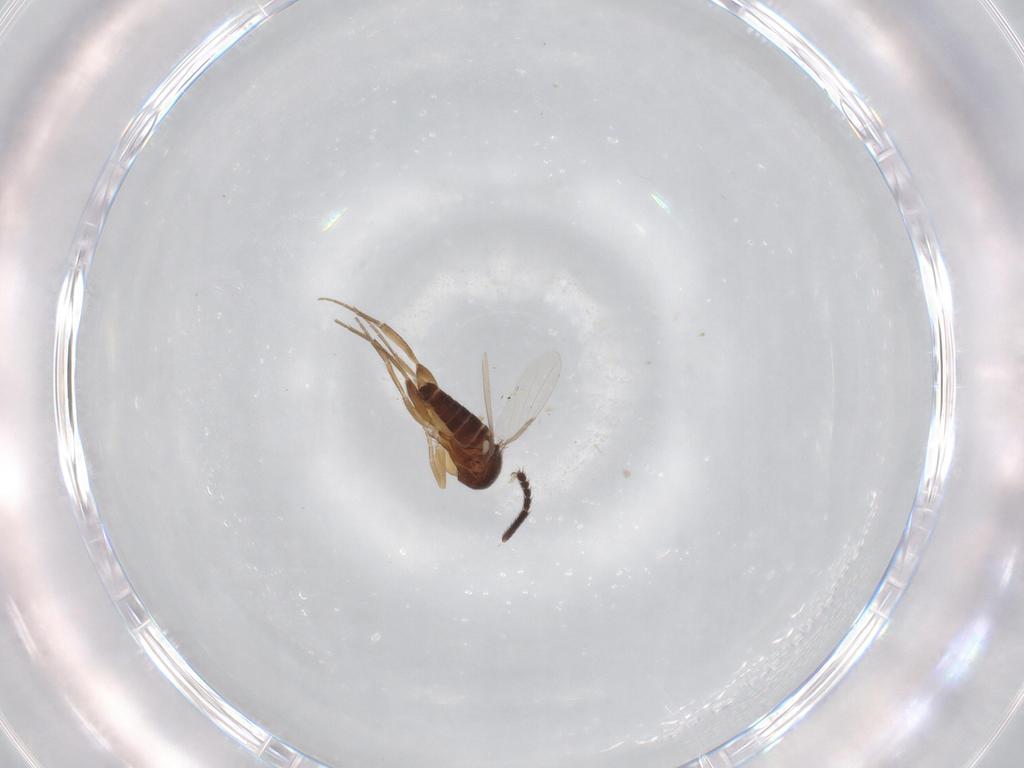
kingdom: Animalia
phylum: Arthropoda
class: Insecta
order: Diptera
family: Phoridae
